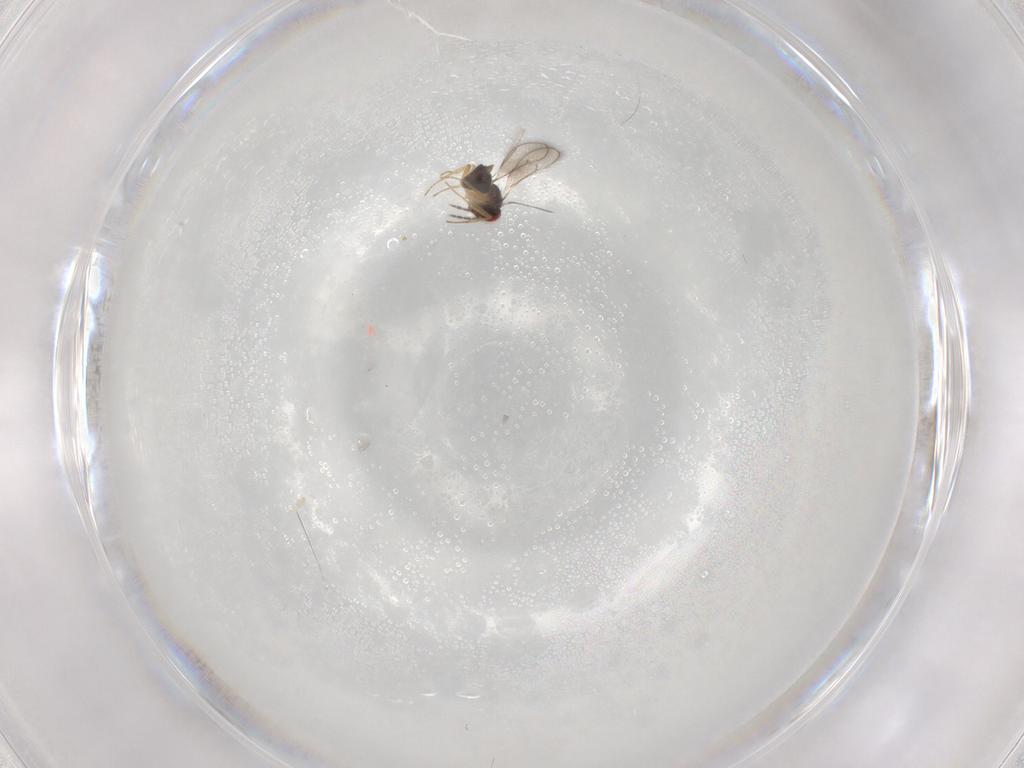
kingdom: Animalia
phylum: Arthropoda
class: Insecta
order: Hymenoptera
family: Eulophidae
